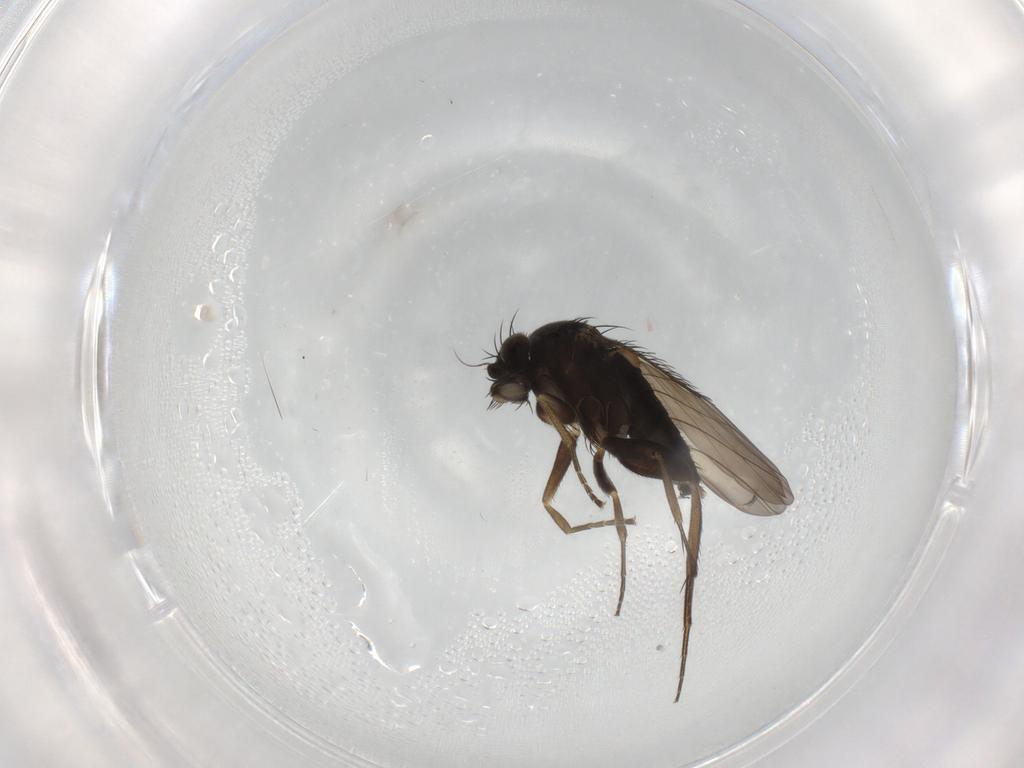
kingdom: Animalia
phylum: Arthropoda
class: Insecta
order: Diptera
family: Phoridae
